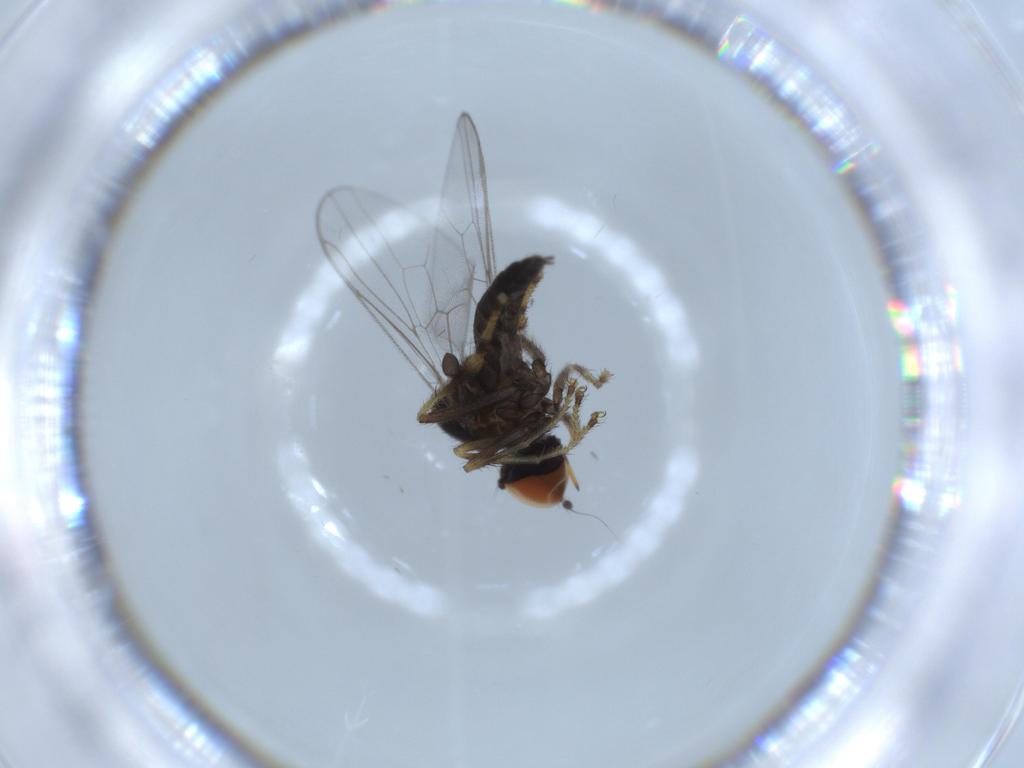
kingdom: Animalia
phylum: Arthropoda
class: Insecta
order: Diptera
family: Hybotidae
